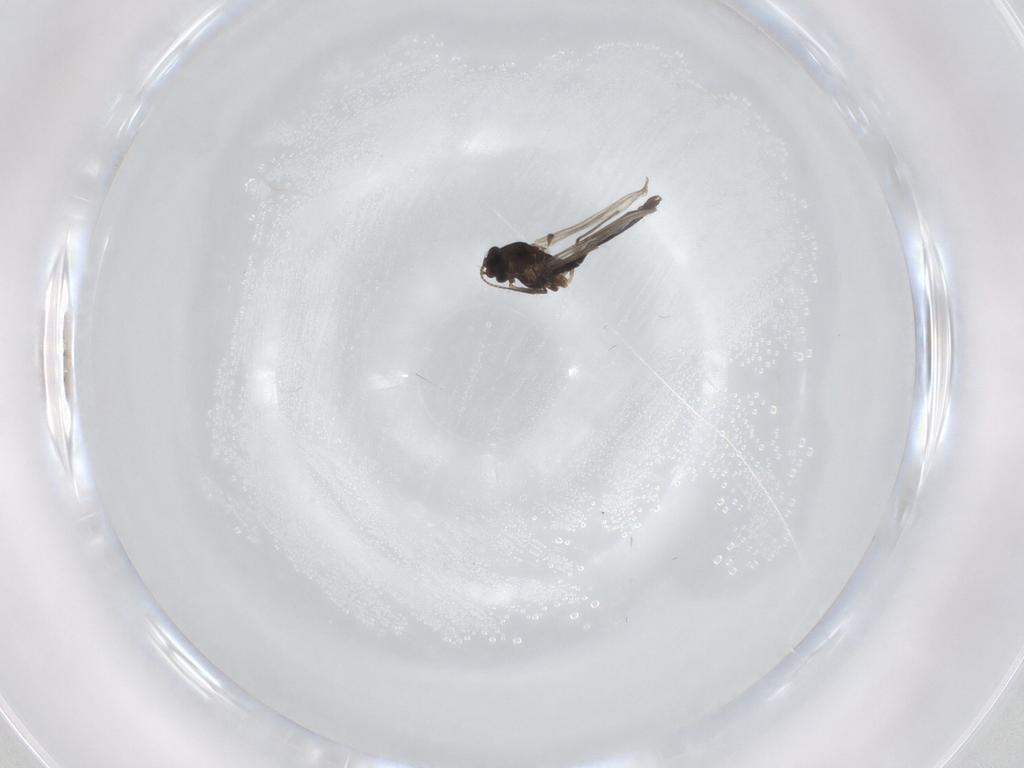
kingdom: Animalia
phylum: Arthropoda
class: Insecta
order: Diptera
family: Chironomidae
